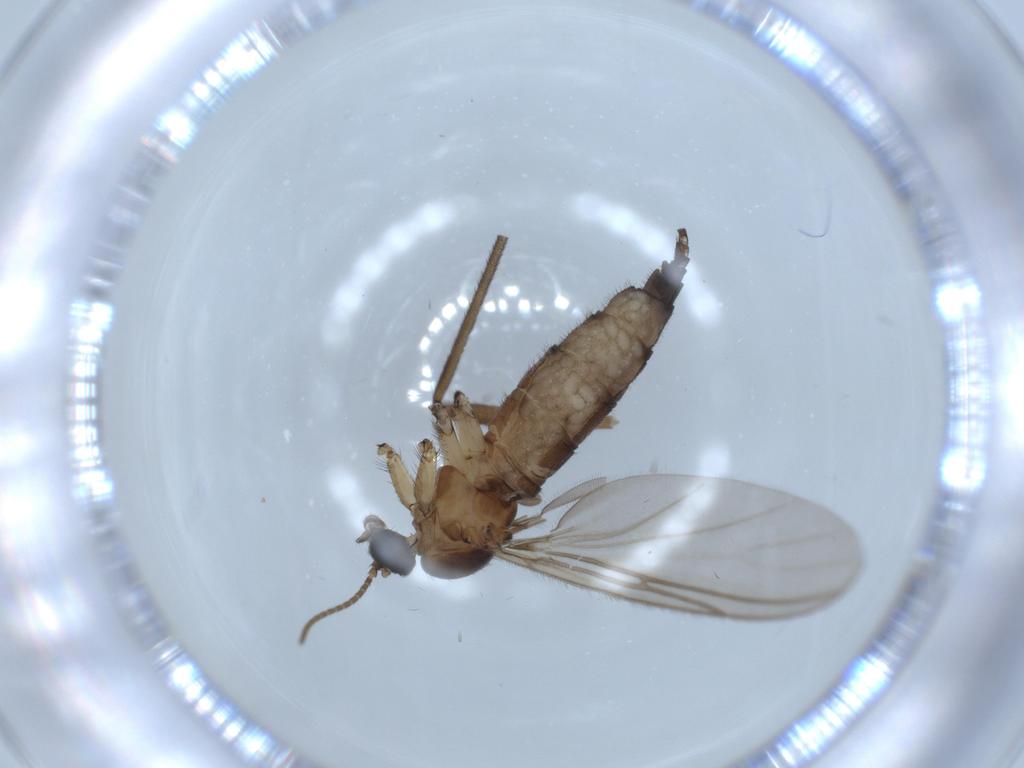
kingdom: Animalia
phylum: Arthropoda
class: Insecta
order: Diptera
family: Sciaridae
